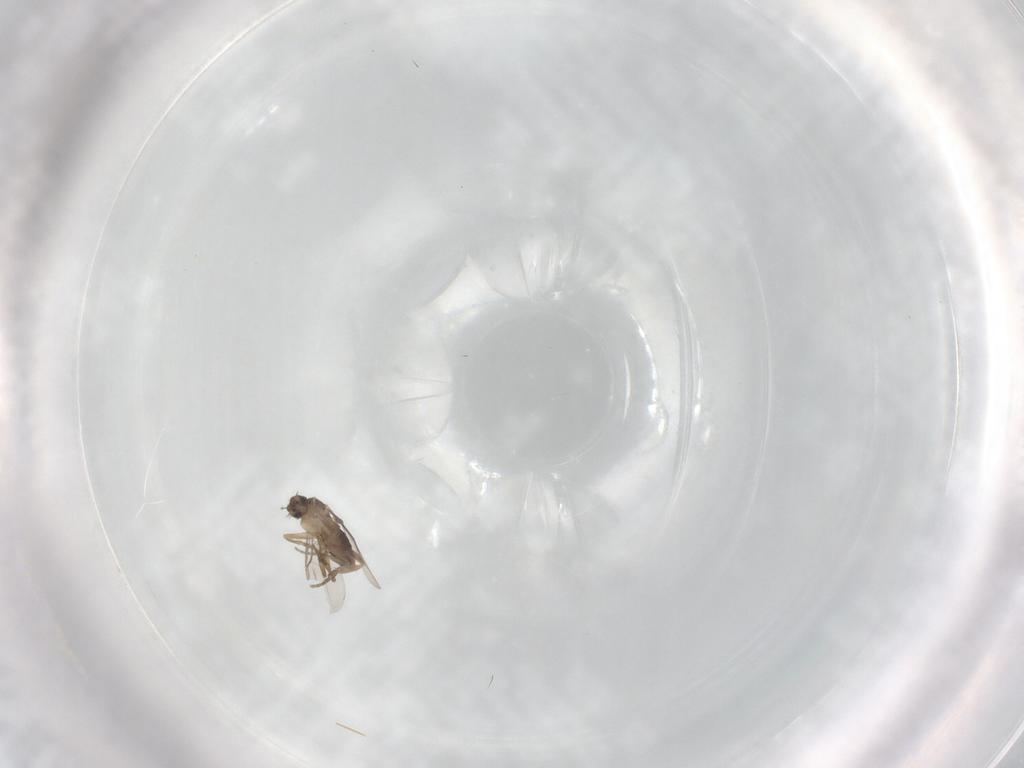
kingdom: Animalia
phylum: Arthropoda
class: Insecta
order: Diptera
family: Phoridae
